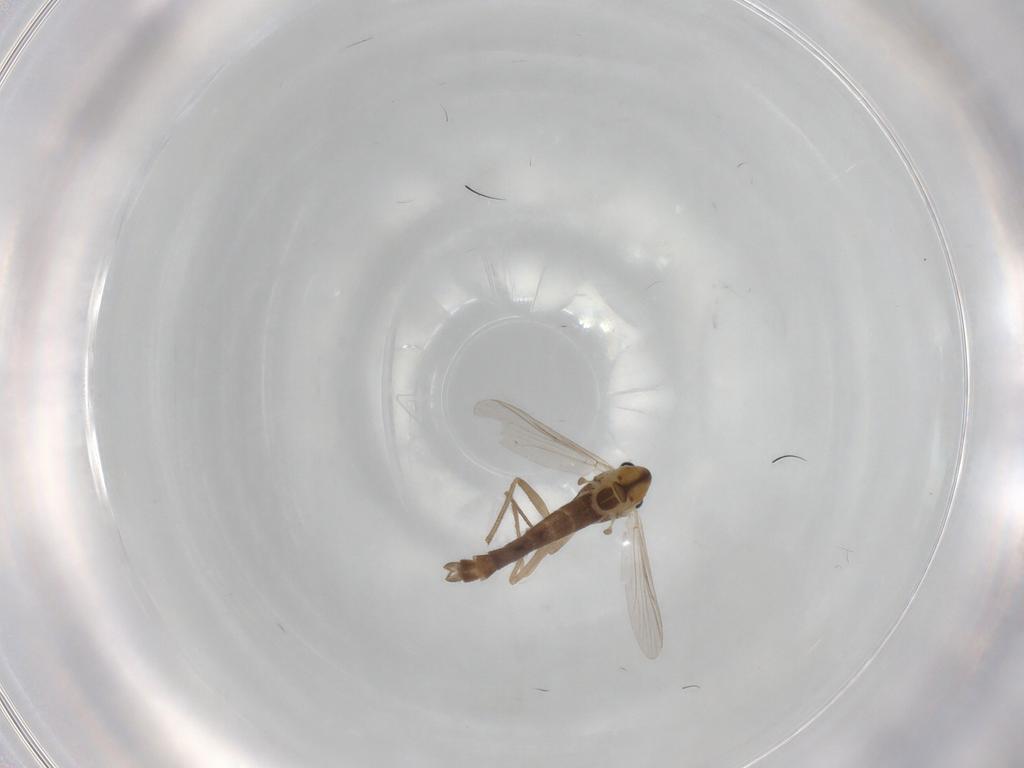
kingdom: Animalia
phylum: Arthropoda
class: Insecta
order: Diptera
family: Chironomidae
